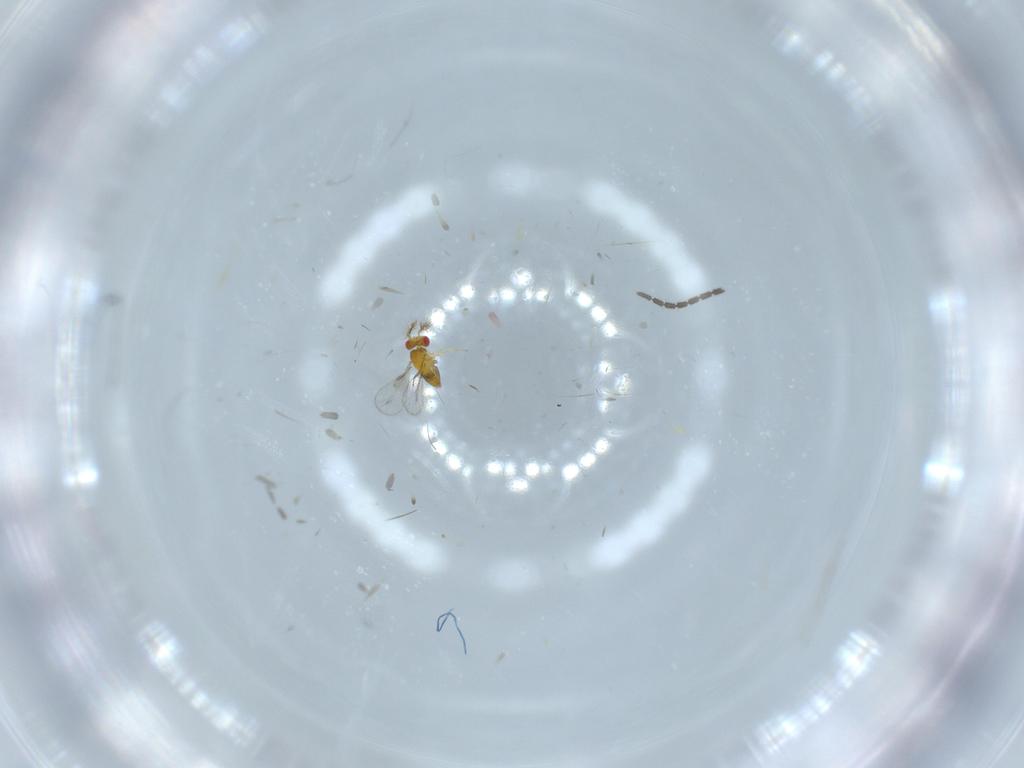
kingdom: Animalia
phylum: Arthropoda
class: Insecta
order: Hymenoptera
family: Trichogrammatidae
